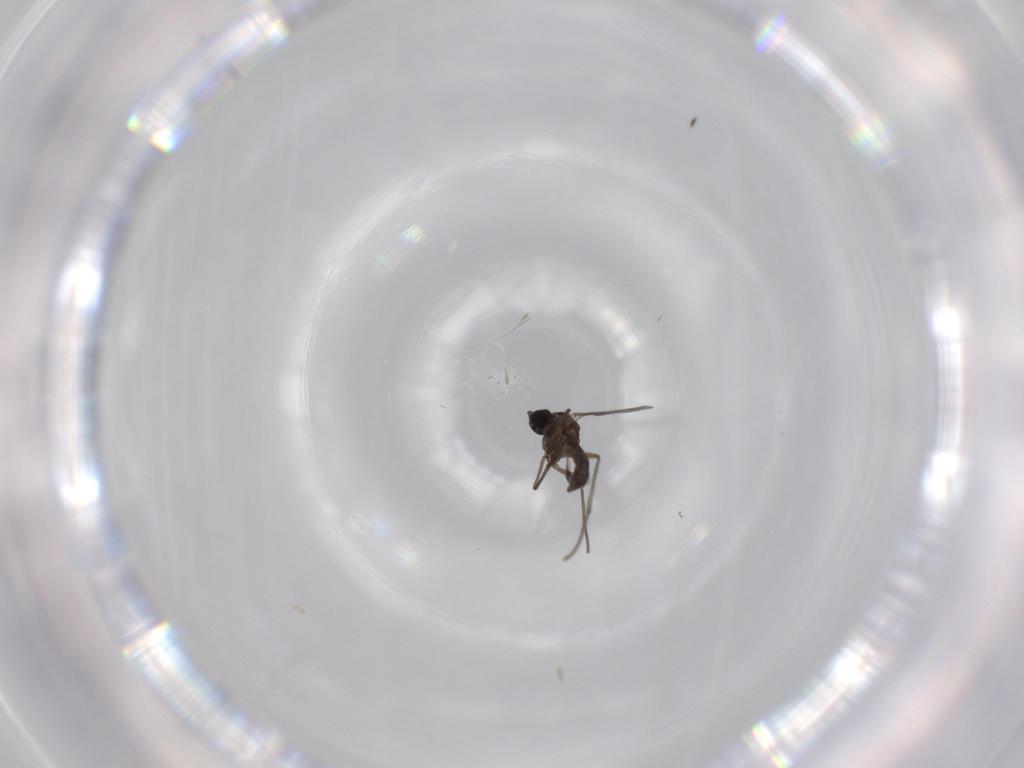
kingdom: Animalia
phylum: Arthropoda
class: Insecta
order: Diptera
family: Sciaridae
